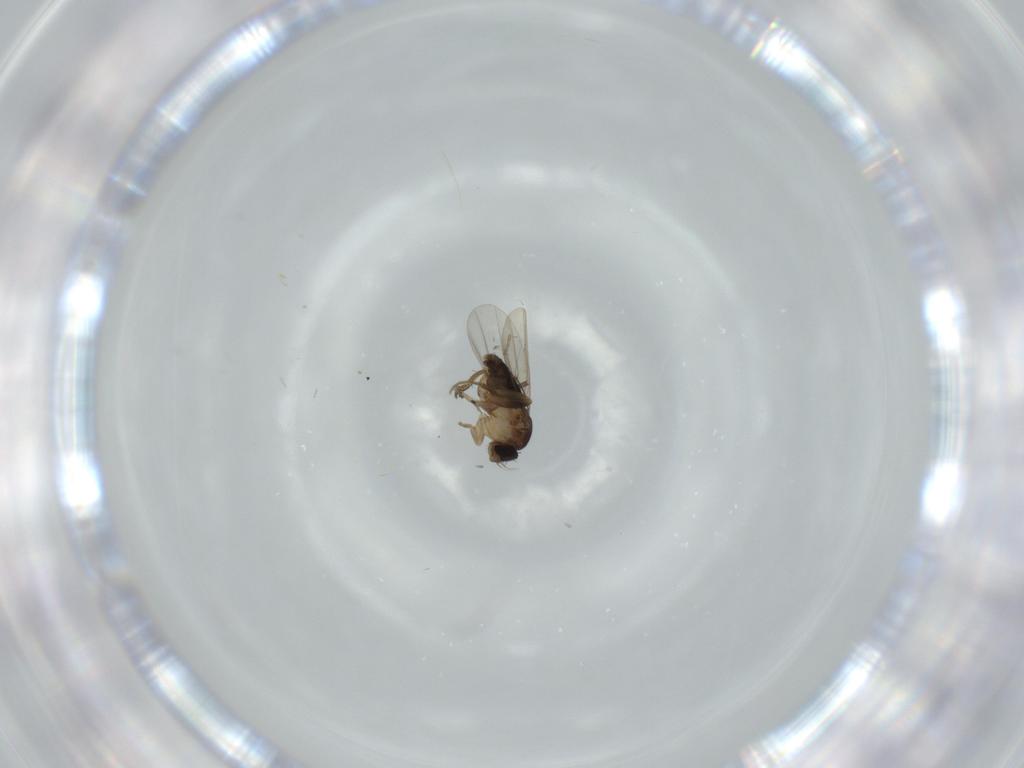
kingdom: Animalia
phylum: Arthropoda
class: Insecta
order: Diptera
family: Phoridae
